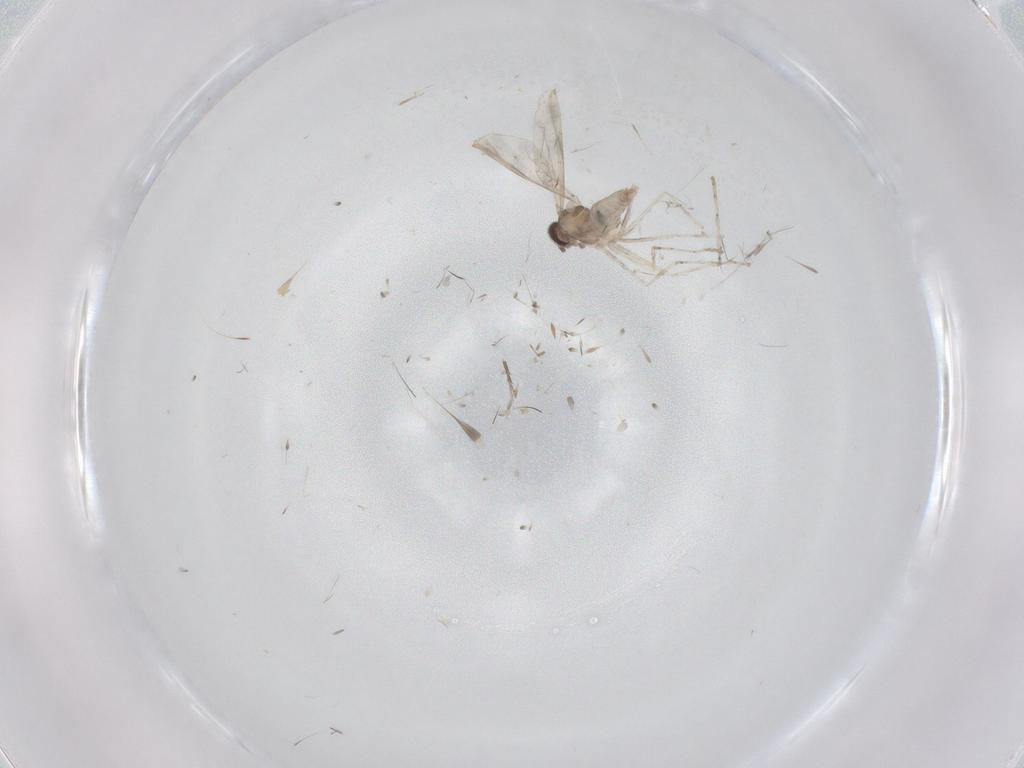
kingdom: Animalia
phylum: Arthropoda
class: Insecta
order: Diptera
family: Cecidomyiidae
